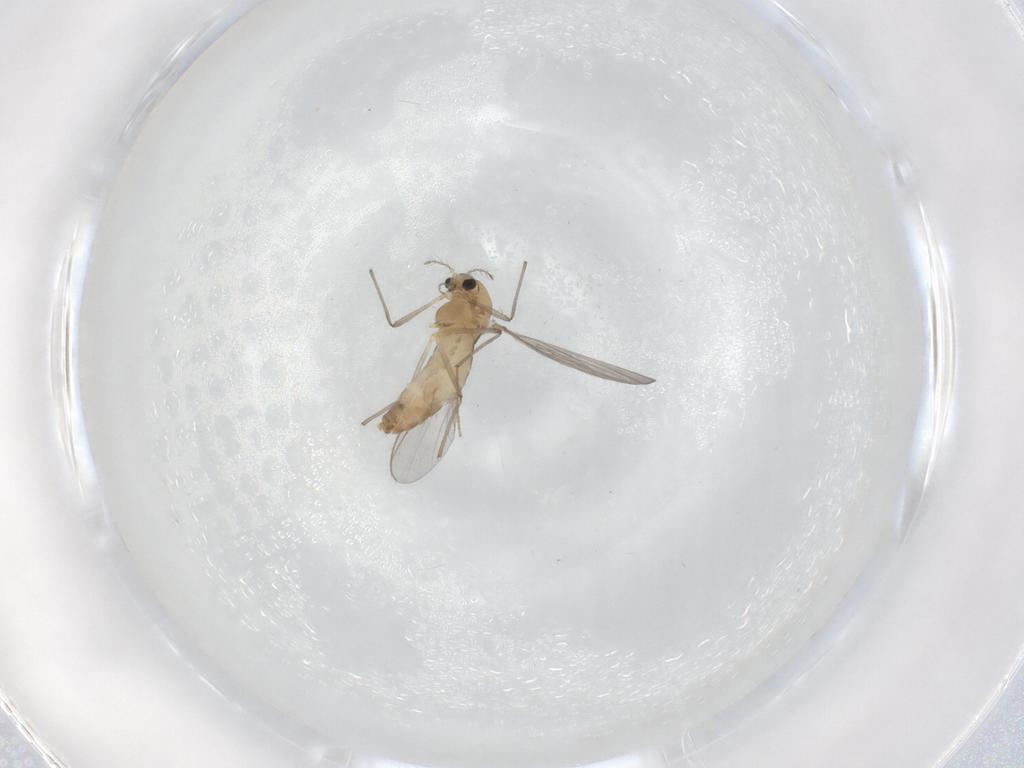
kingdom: Animalia
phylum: Arthropoda
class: Insecta
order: Diptera
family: Chironomidae
